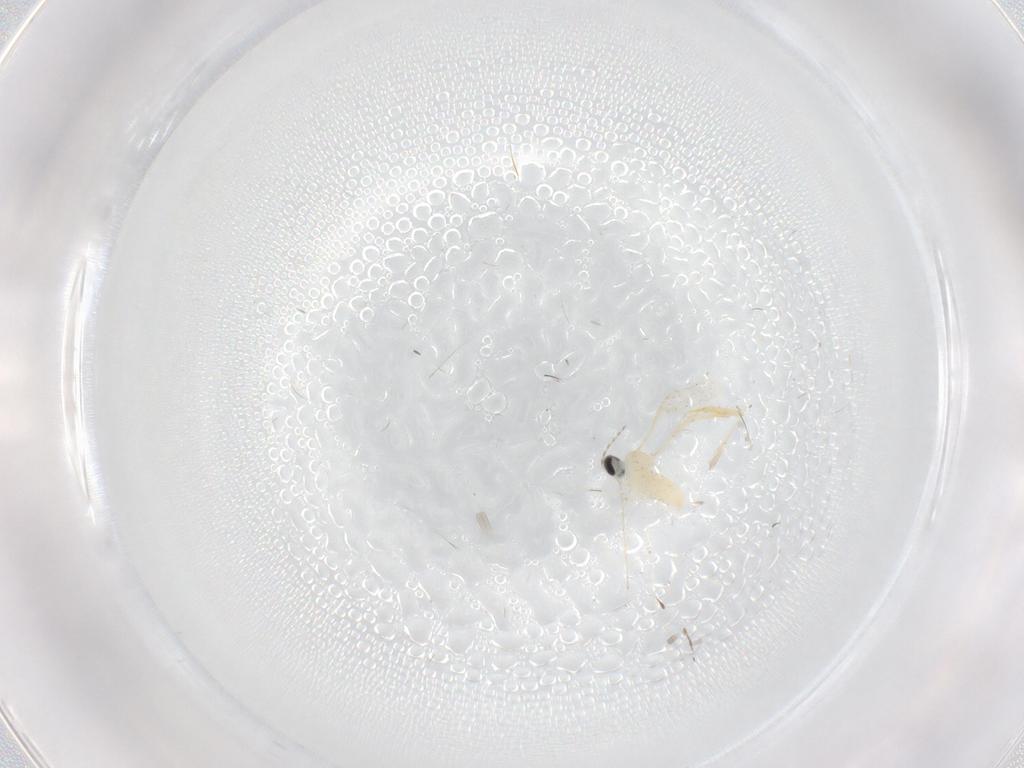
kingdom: Animalia
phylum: Arthropoda
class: Insecta
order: Diptera
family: Cecidomyiidae
